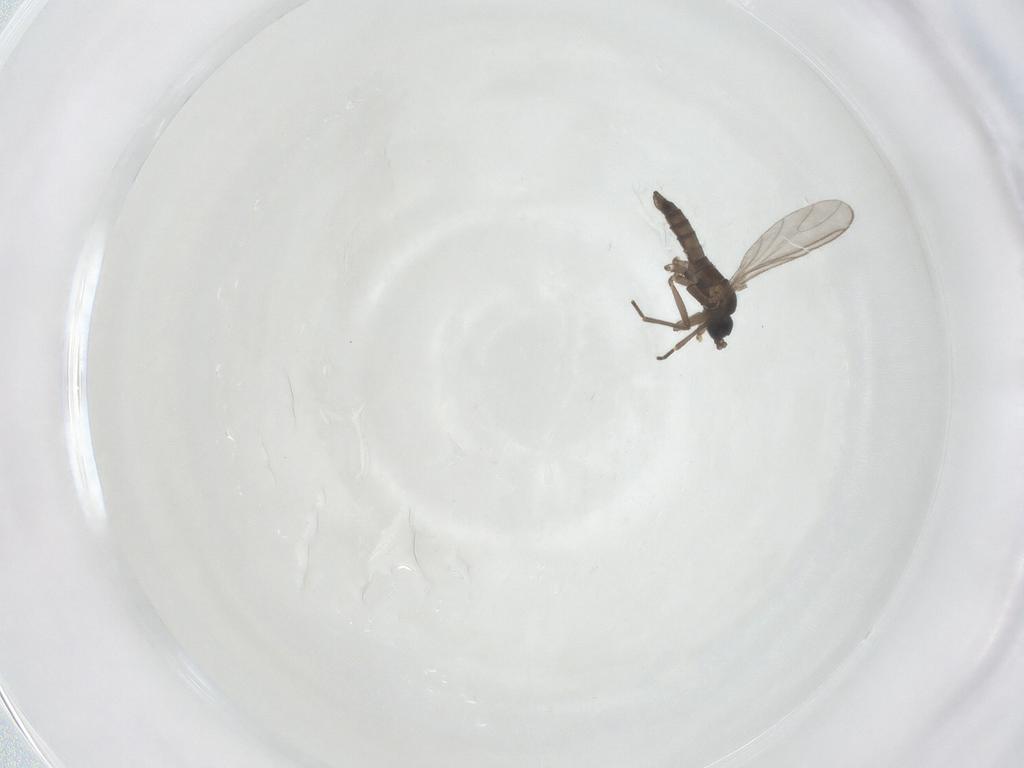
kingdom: Animalia
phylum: Arthropoda
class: Insecta
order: Diptera
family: Sciaridae
